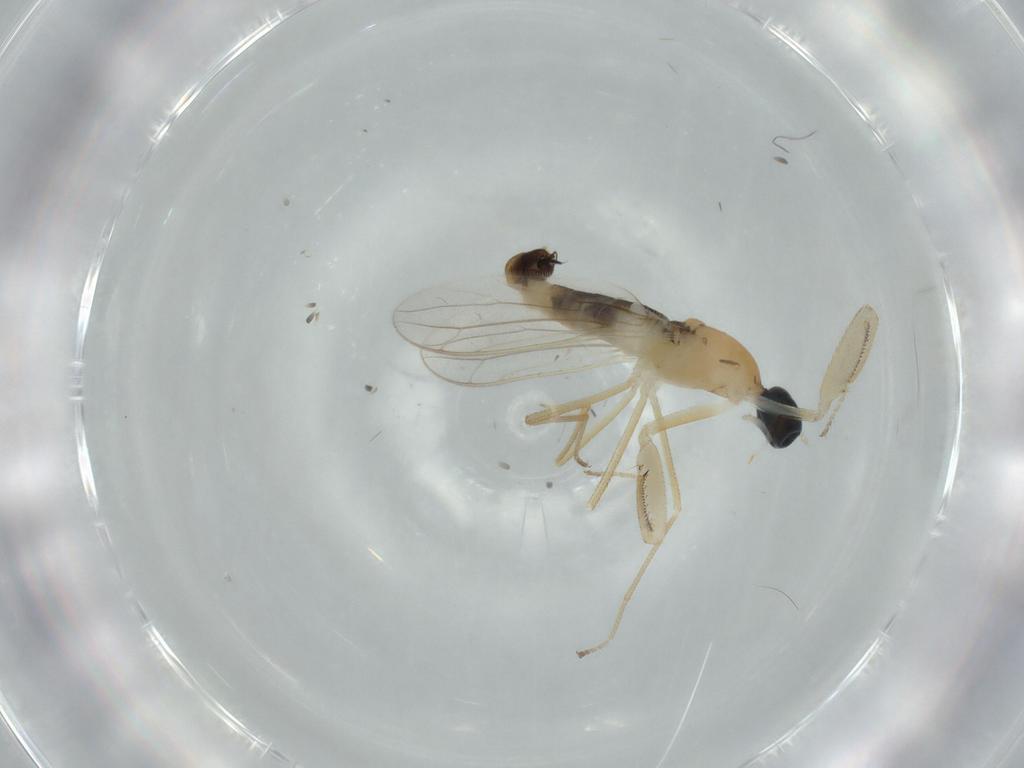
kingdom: Animalia
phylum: Arthropoda
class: Insecta
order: Diptera
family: Empididae
